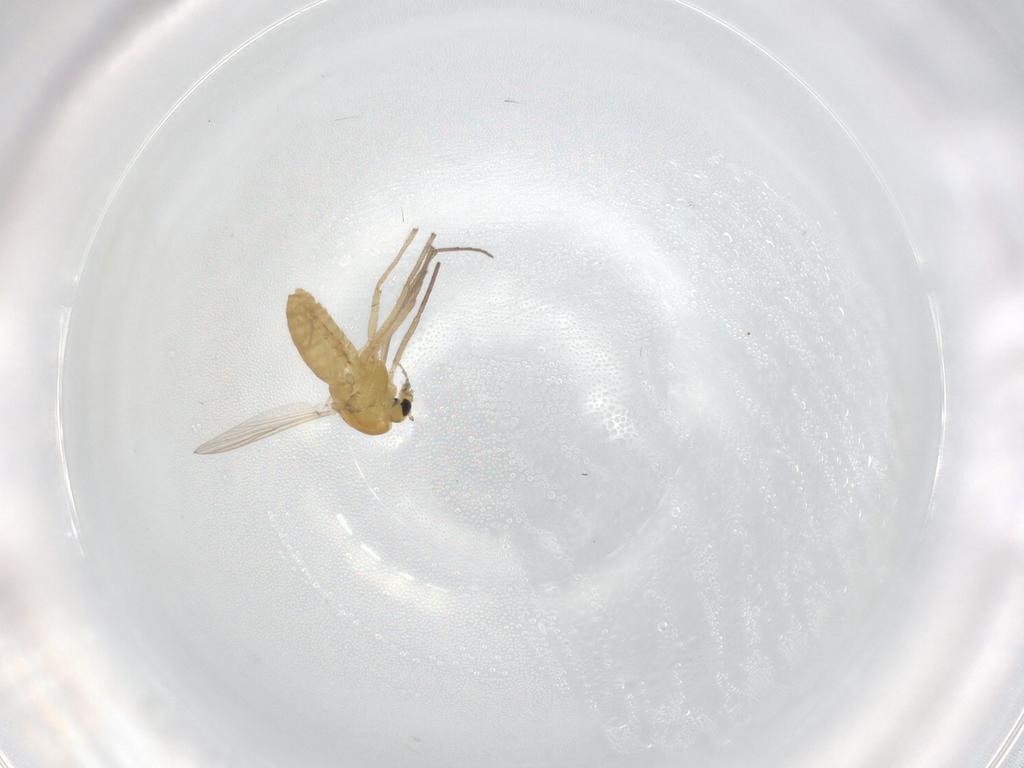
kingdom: Animalia
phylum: Arthropoda
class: Insecta
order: Diptera
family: Chironomidae
